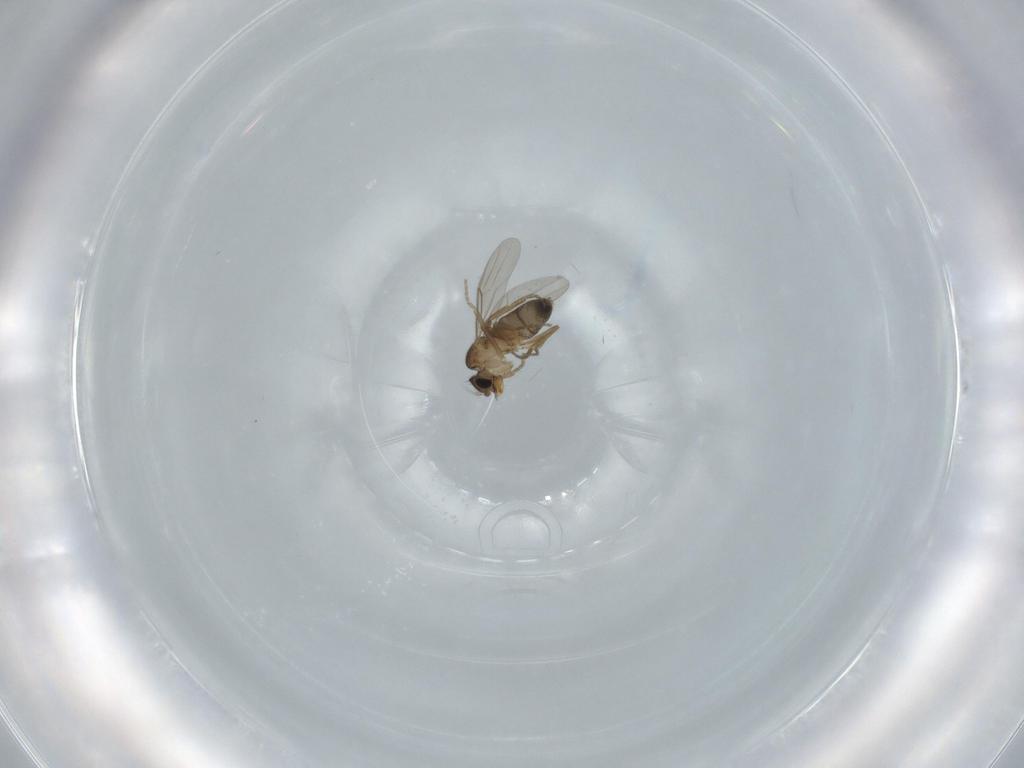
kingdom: Animalia
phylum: Arthropoda
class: Insecta
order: Diptera
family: Phoridae
